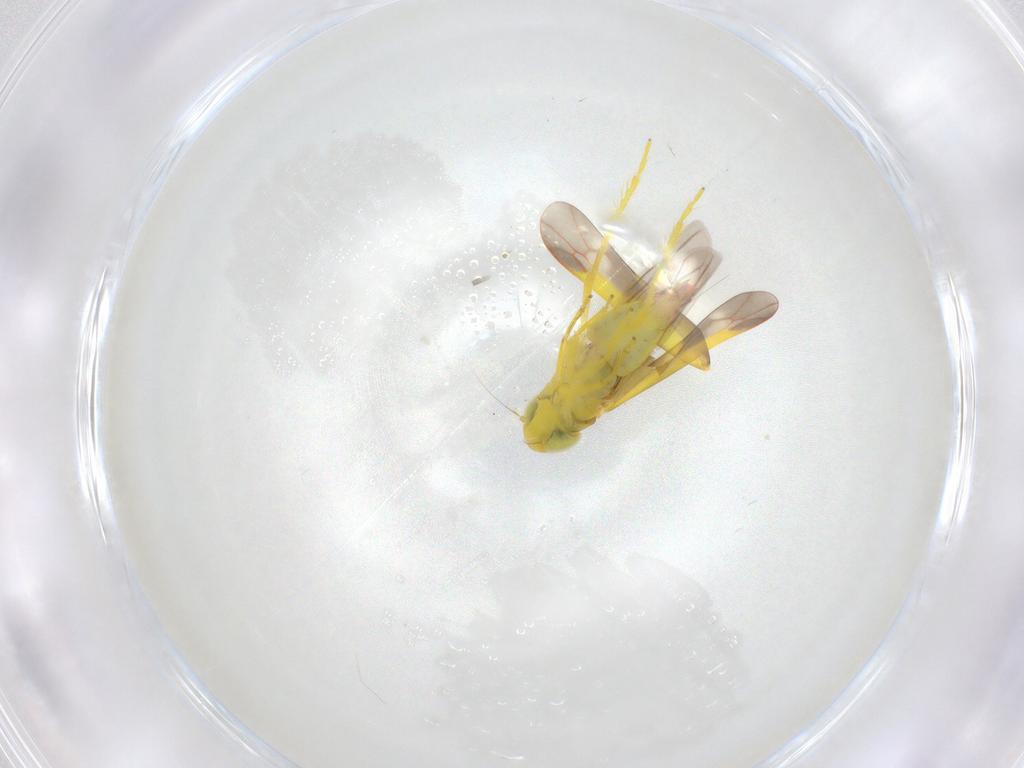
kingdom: Animalia
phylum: Arthropoda
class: Insecta
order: Hemiptera
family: Cicadellidae
